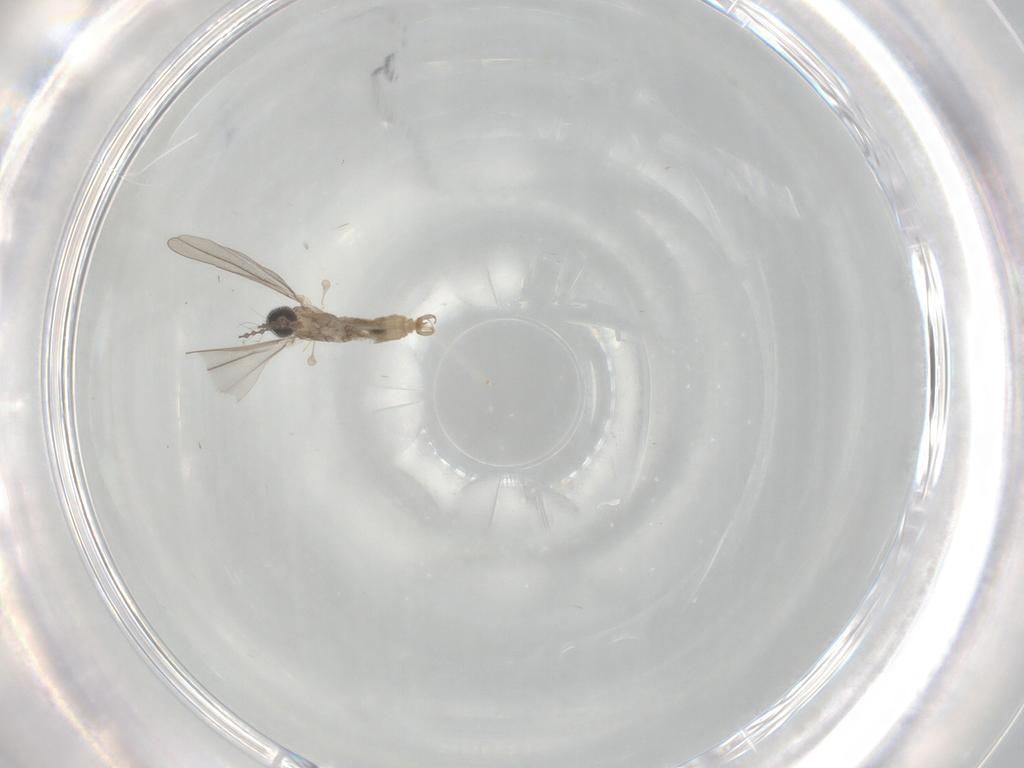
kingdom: Animalia
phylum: Arthropoda
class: Insecta
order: Diptera
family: Cecidomyiidae
